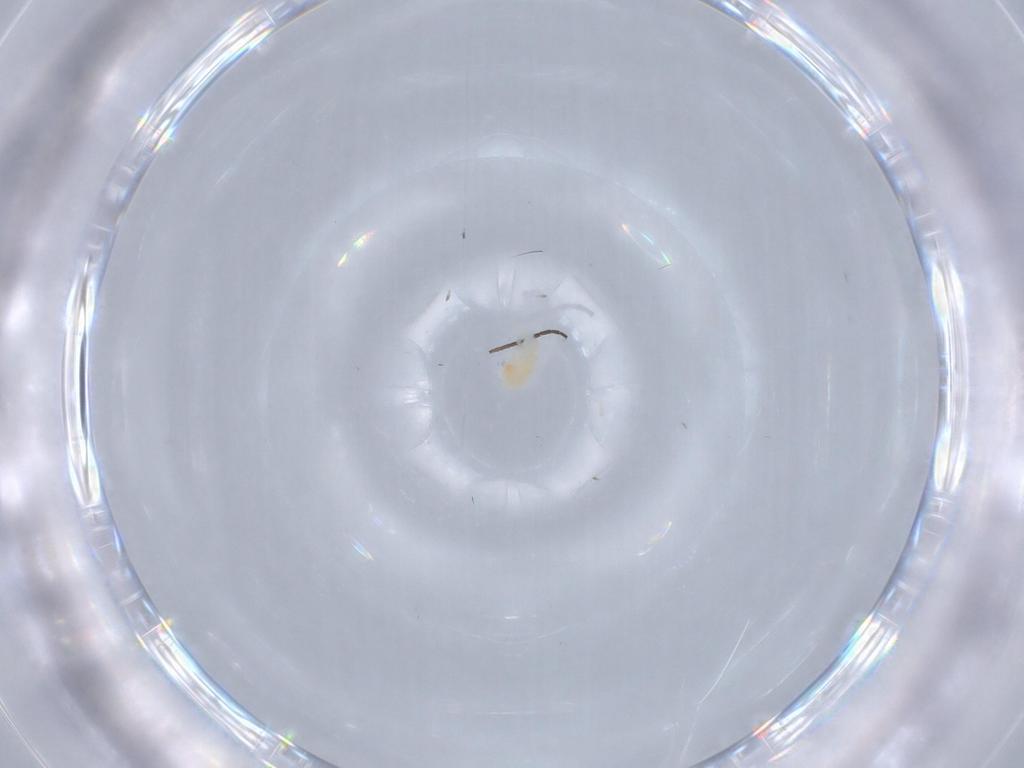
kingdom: Animalia
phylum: Arthropoda
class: Arachnida
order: Trombidiformes
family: Eupodidae
